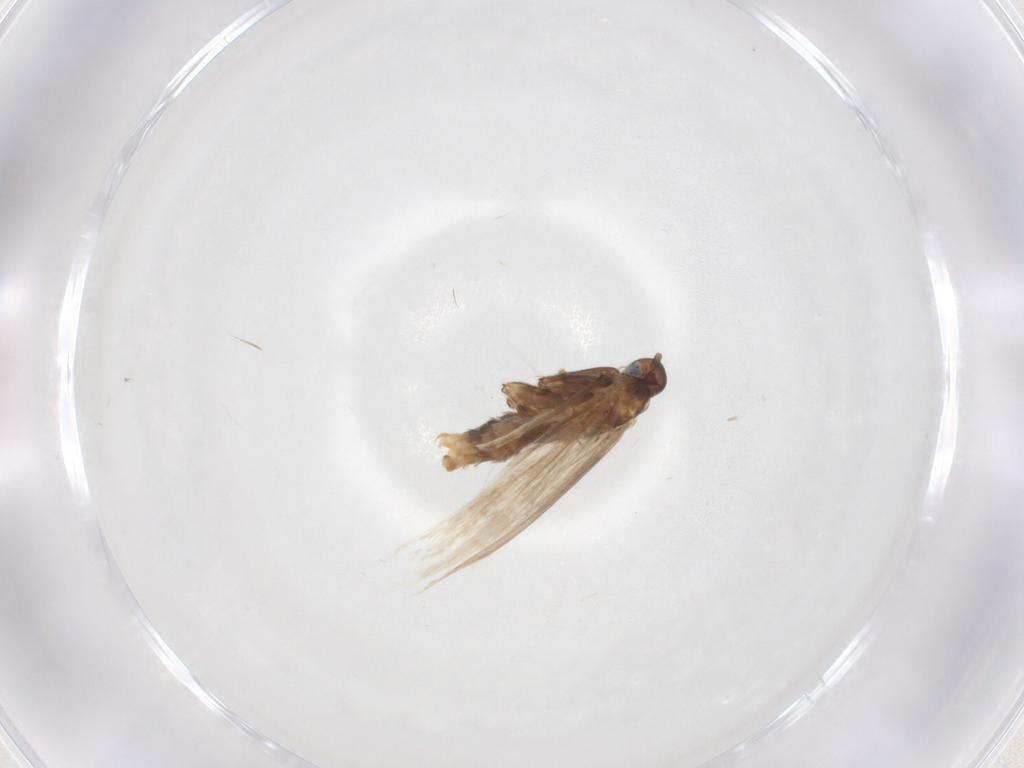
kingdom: Animalia
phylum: Arthropoda
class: Insecta
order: Lepidoptera
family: Coleophoridae
